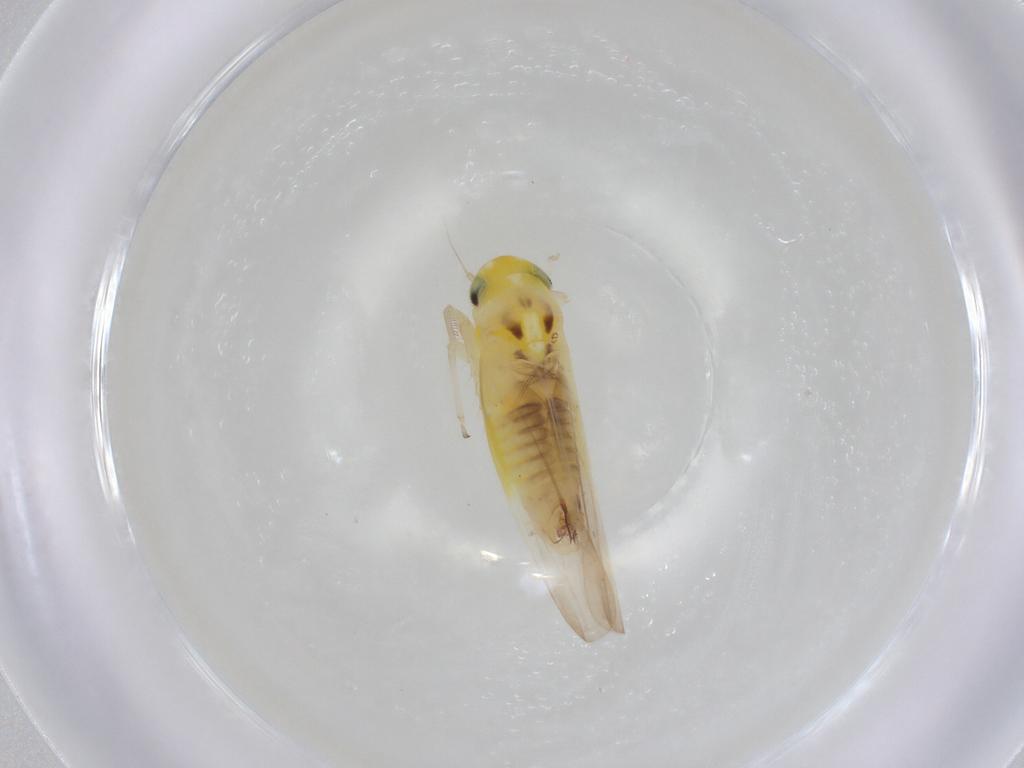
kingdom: Animalia
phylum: Arthropoda
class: Insecta
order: Hemiptera
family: Cicadellidae
